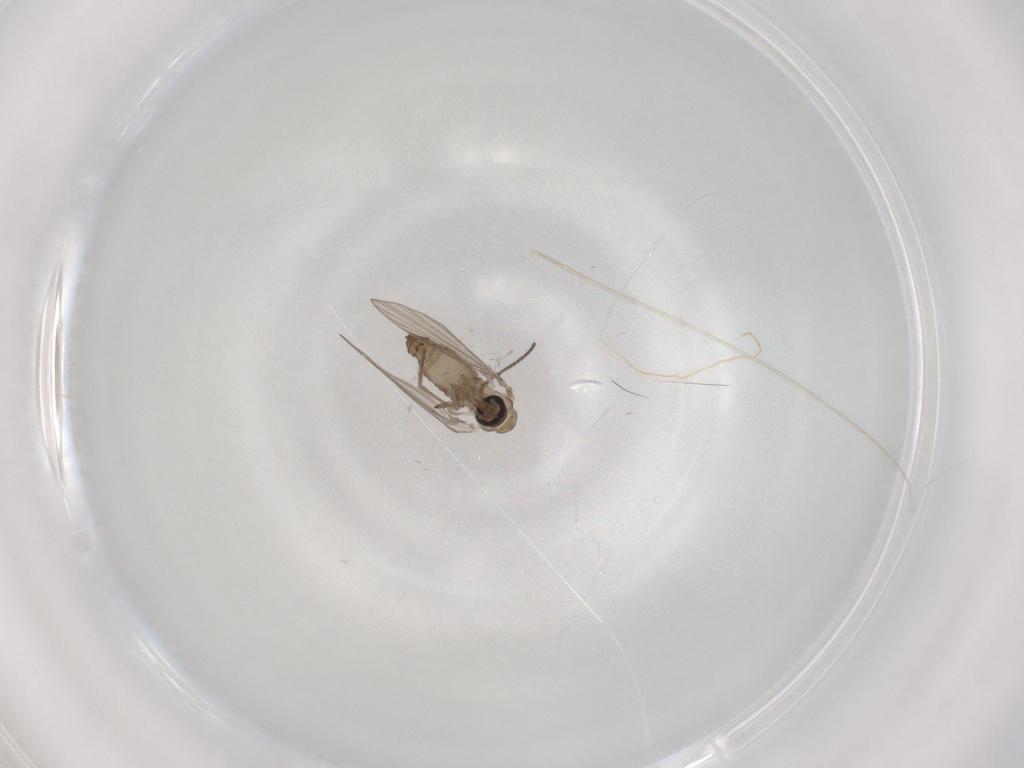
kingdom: Animalia
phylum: Arthropoda
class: Insecta
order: Diptera
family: Psychodidae
